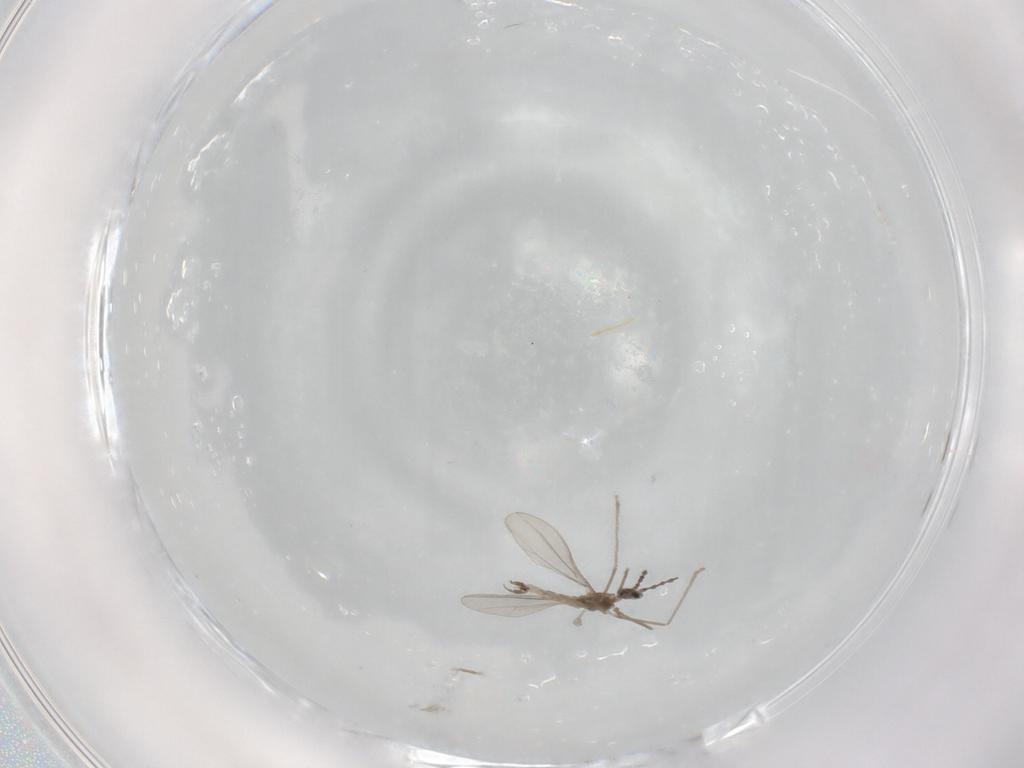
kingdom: Animalia
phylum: Arthropoda
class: Insecta
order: Diptera
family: Cecidomyiidae
